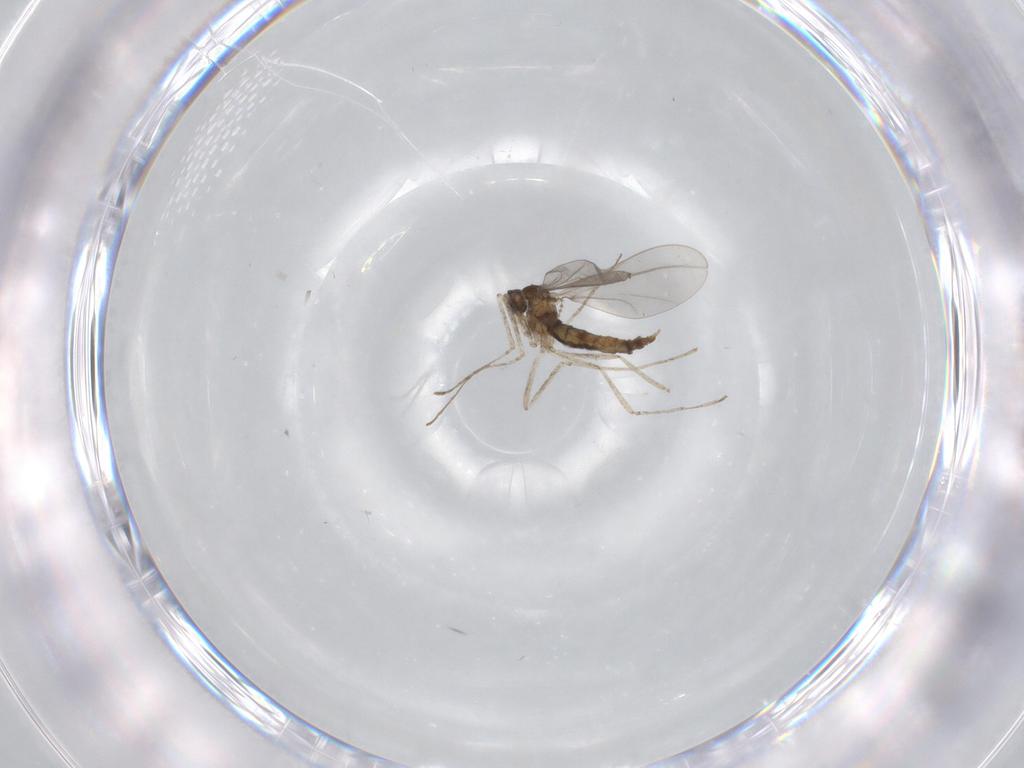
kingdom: Animalia
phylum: Arthropoda
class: Insecta
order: Diptera
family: Cecidomyiidae
